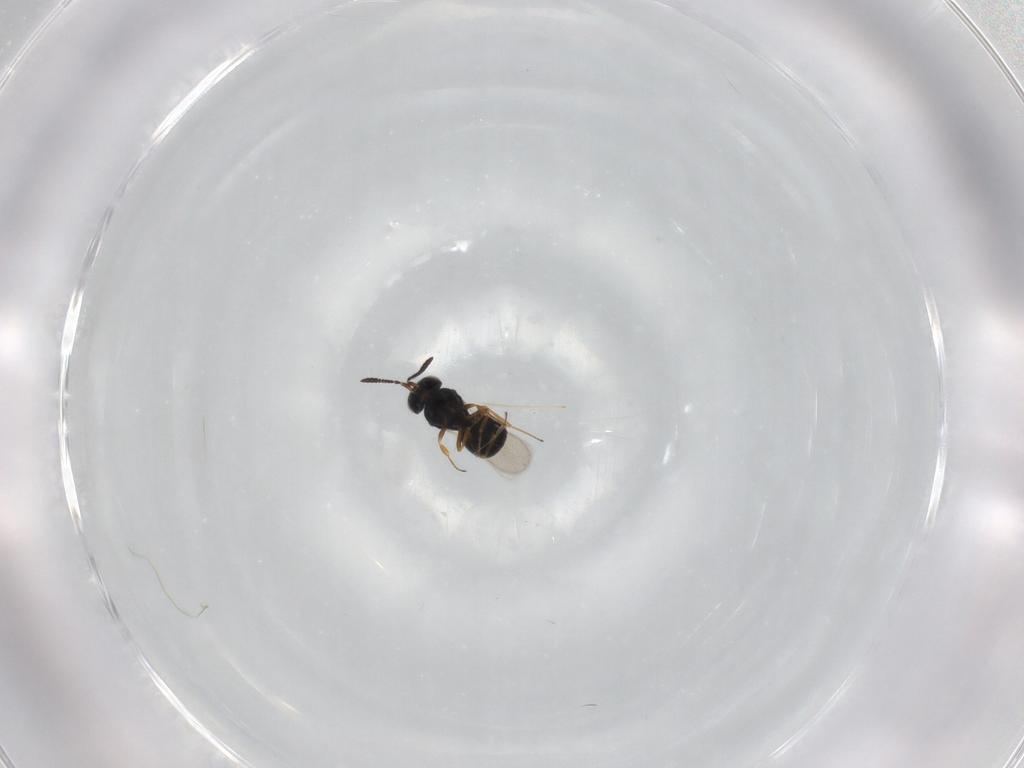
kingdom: Animalia
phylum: Arthropoda
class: Insecta
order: Hymenoptera
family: Scelionidae
